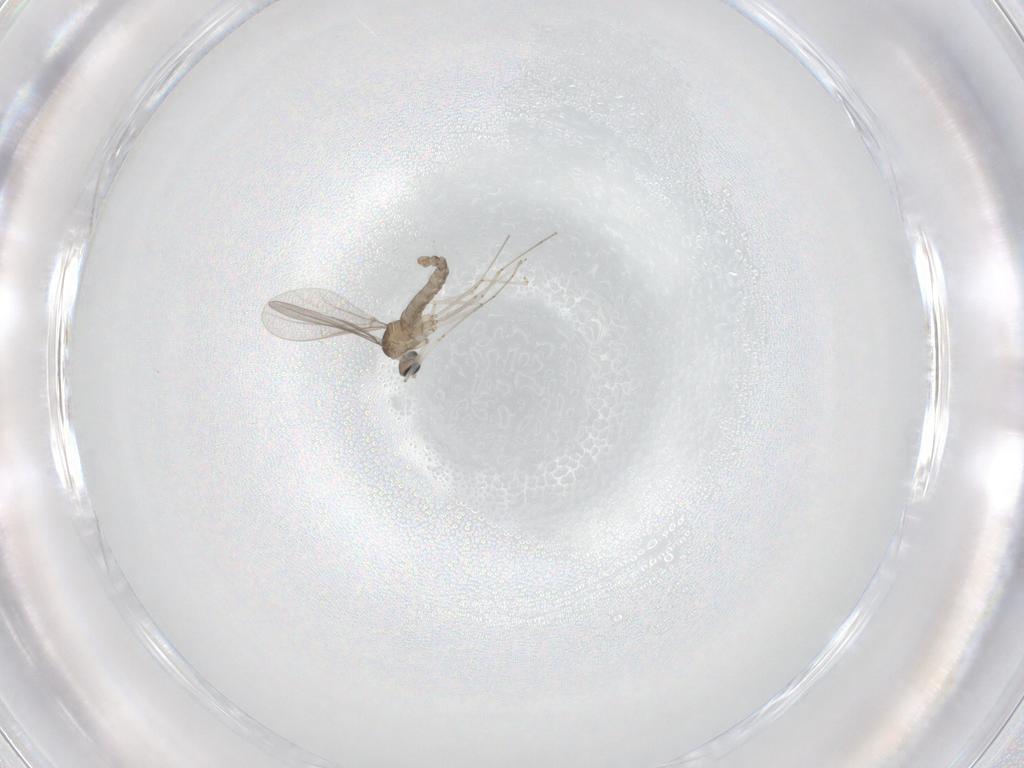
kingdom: Animalia
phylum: Arthropoda
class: Insecta
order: Diptera
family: Cecidomyiidae
